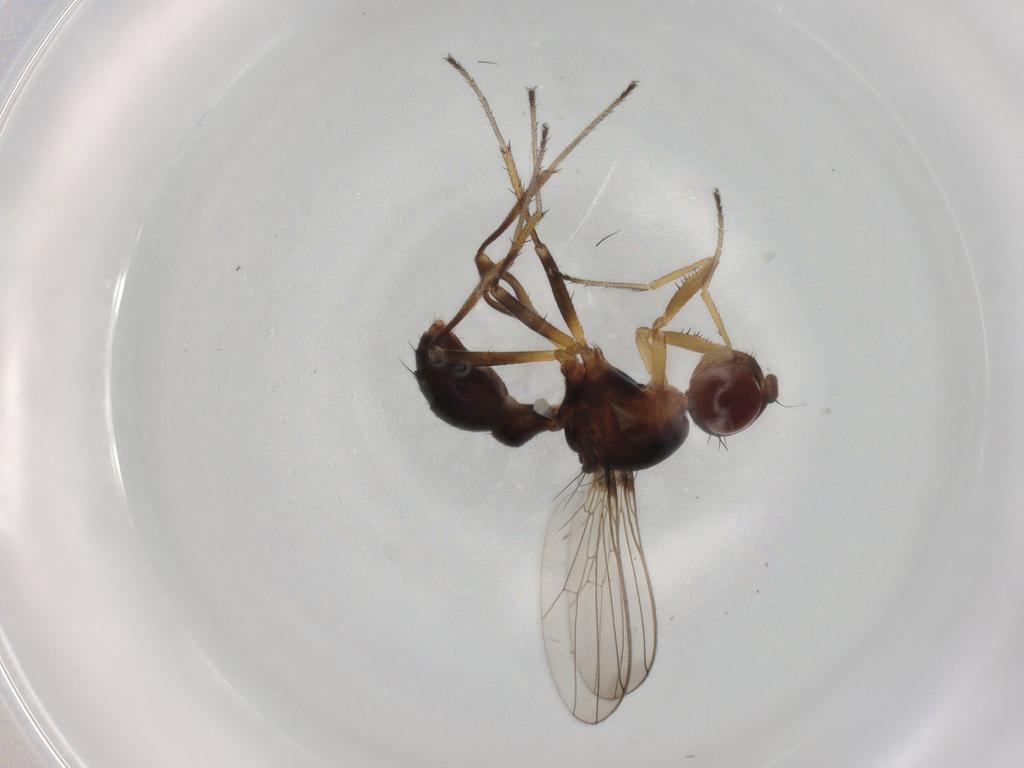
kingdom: Animalia
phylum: Arthropoda
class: Insecta
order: Diptera
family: Sepsidae
